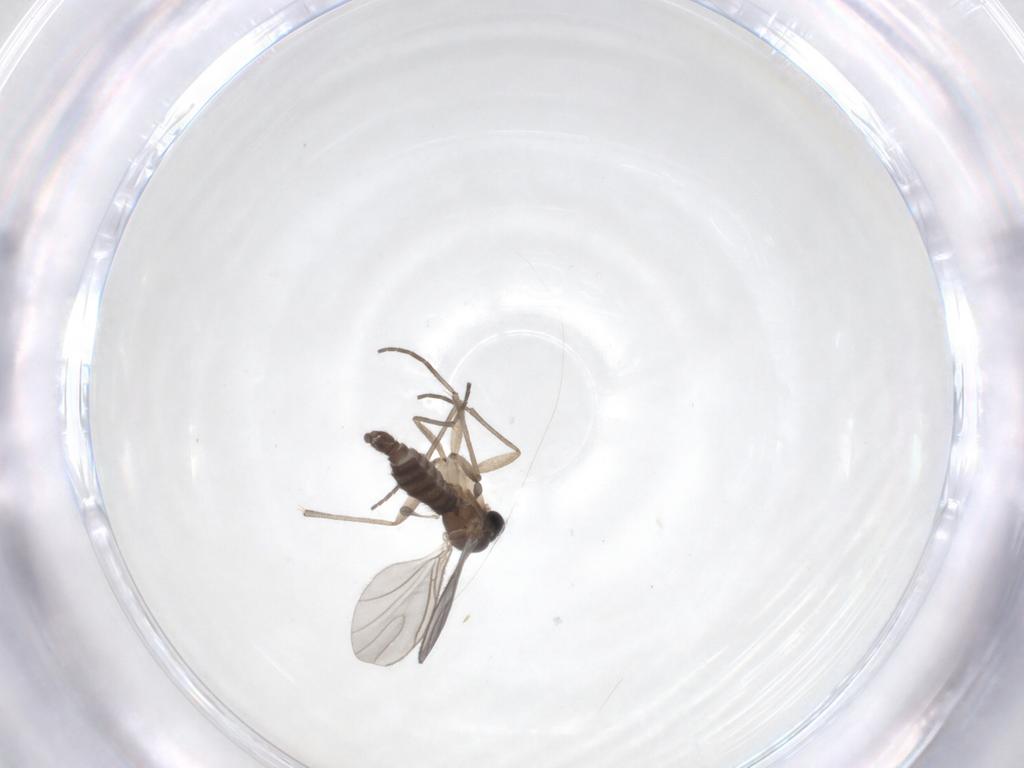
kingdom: Animalia
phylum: Arthropoda
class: Insecta
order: Diptera
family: Sciaridae
